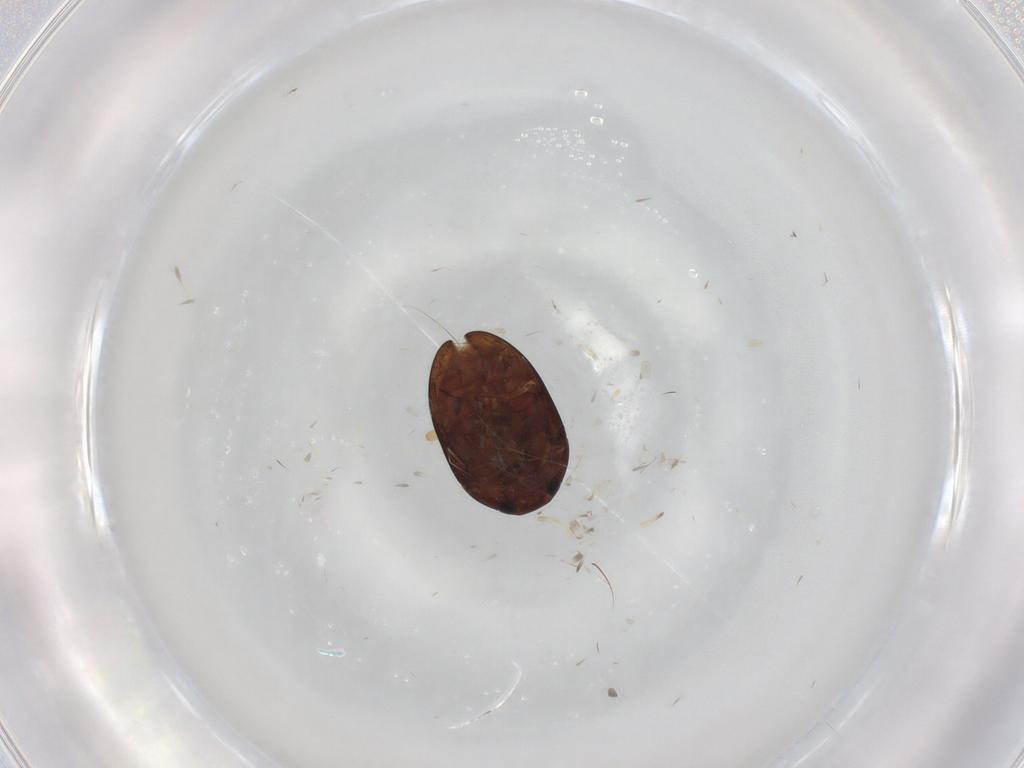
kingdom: Animalia
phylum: Arthropoda
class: Insecta
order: Coleoptera
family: Phalacridae
